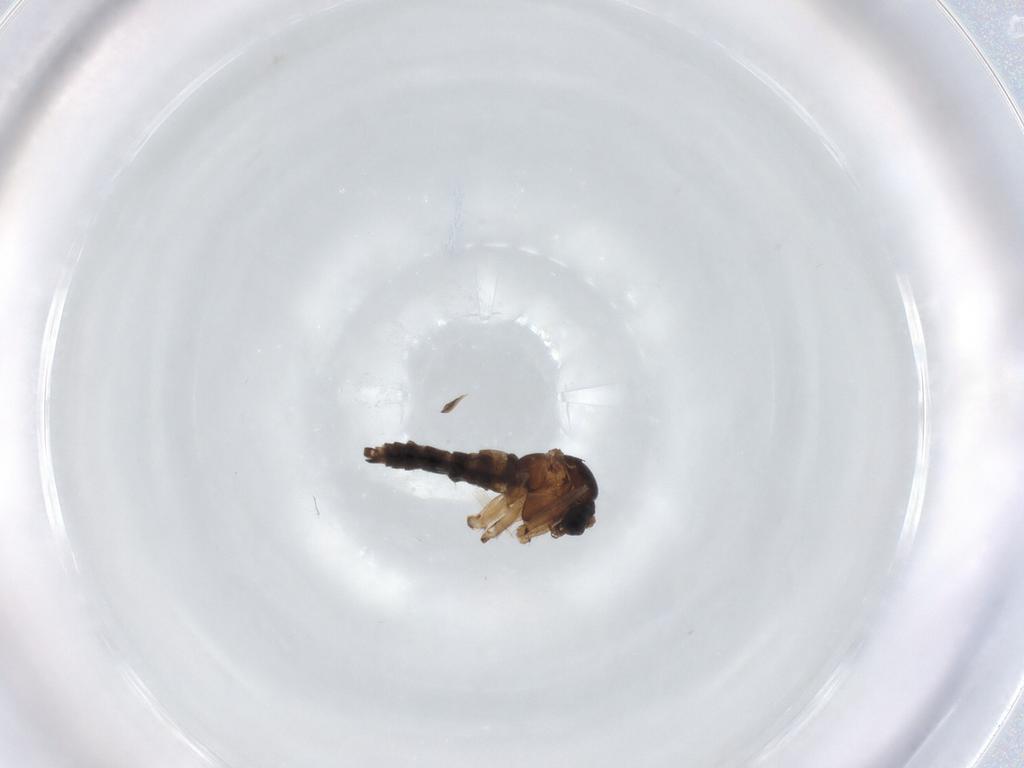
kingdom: Animalia
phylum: Arthropoda
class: Insecta
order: Diptera
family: Sciaridae
